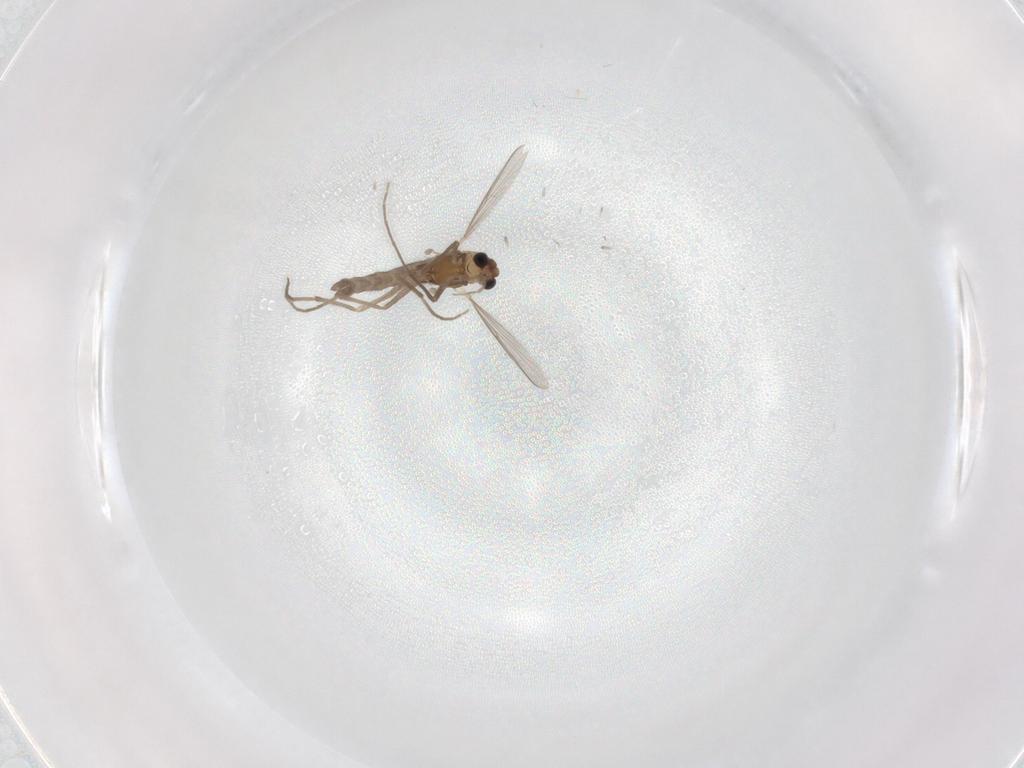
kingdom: Animalia
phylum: Arthropoda
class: Insecta
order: Diptera
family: Chironomidae
